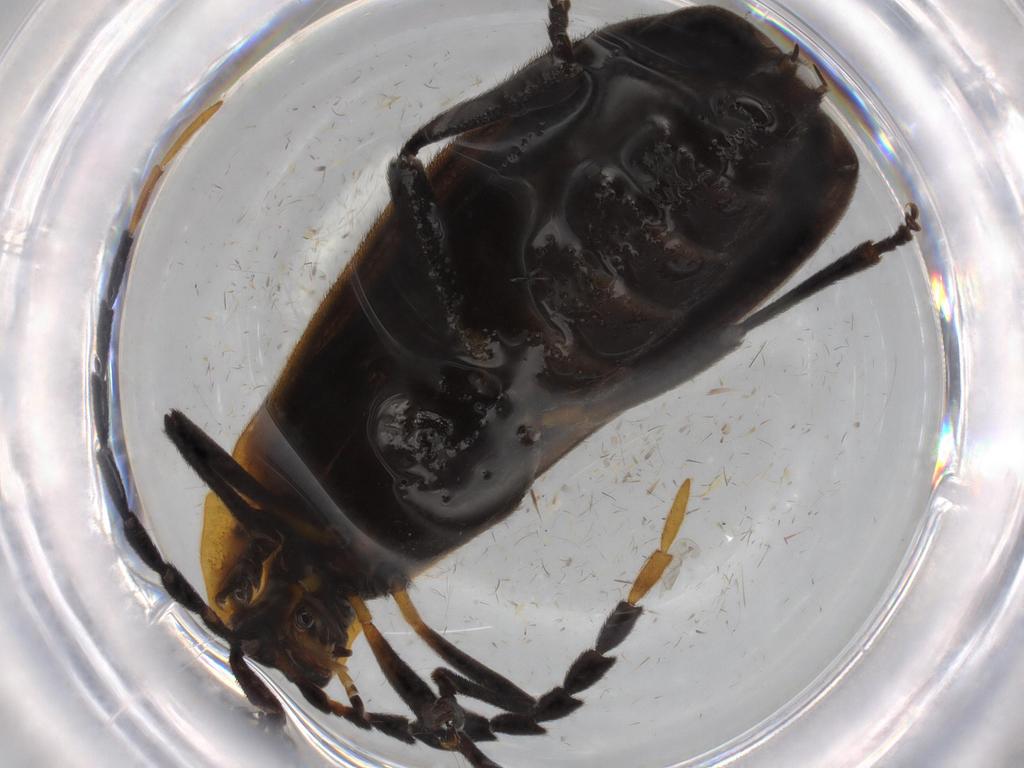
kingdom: Animalia
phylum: Arthropoda
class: Insecta
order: Coleoptera
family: Lycidae
